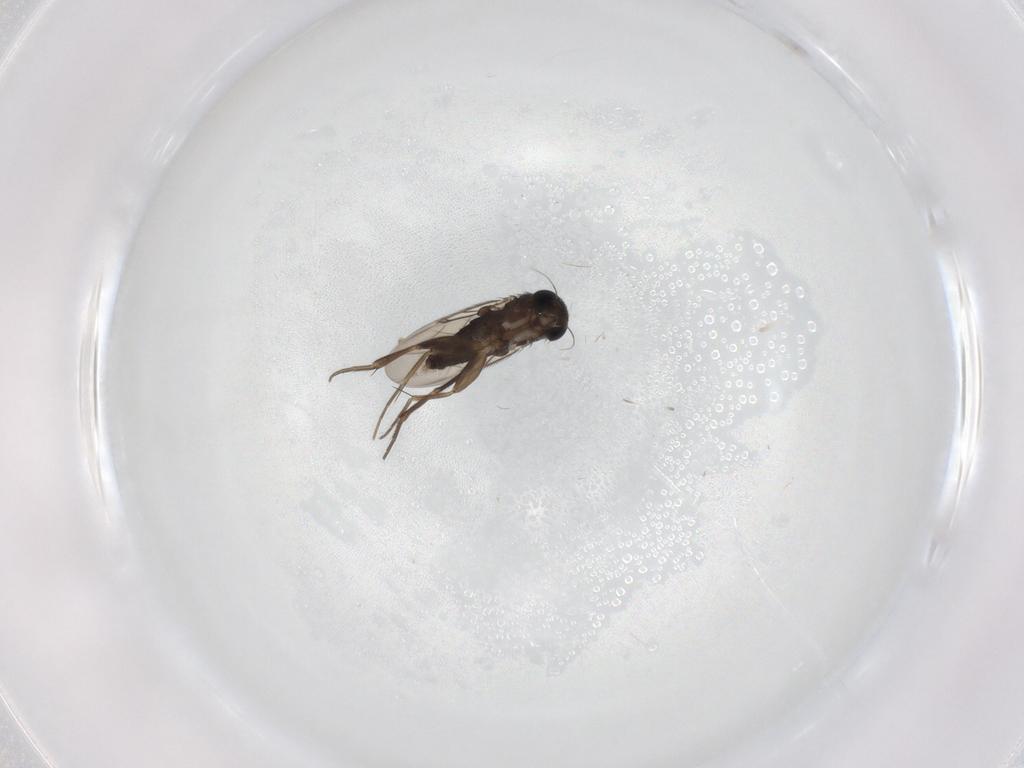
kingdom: Animalia
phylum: Arthropoda
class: Insecta
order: Diptera
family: Phoridae
